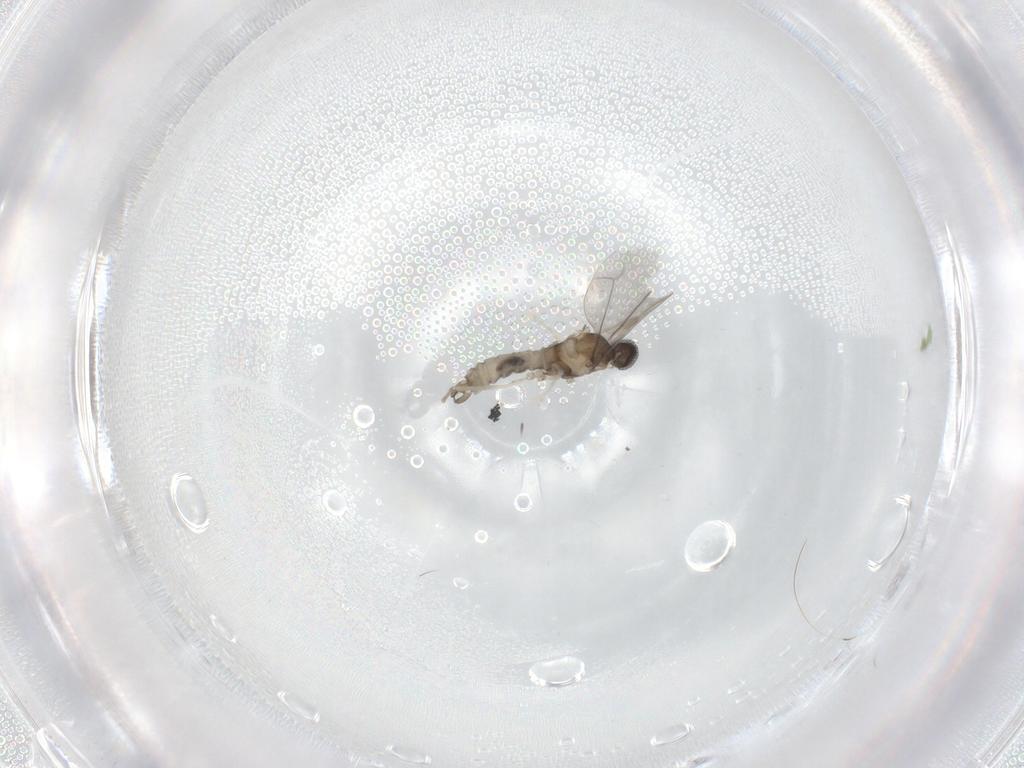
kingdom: Animalia
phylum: Arthropoda
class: Insecta
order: Diptera
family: Cecidomyiidae
